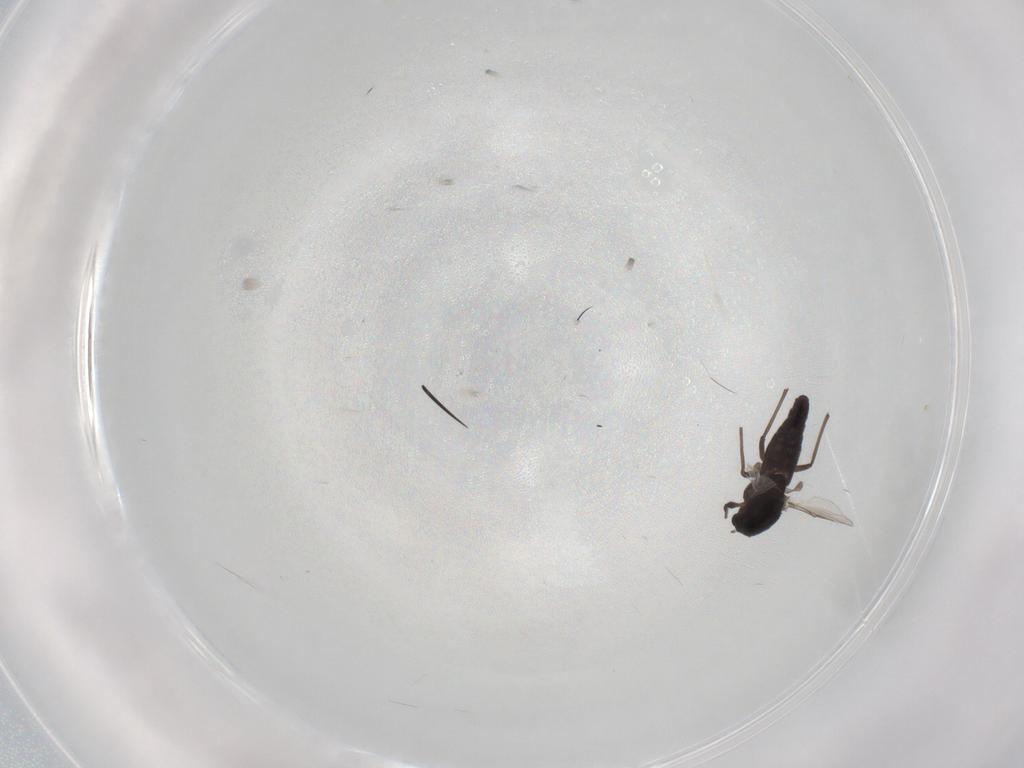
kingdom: Animalia
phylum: Arthropoda
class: Insecta
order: Diptera
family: Chironomidae
